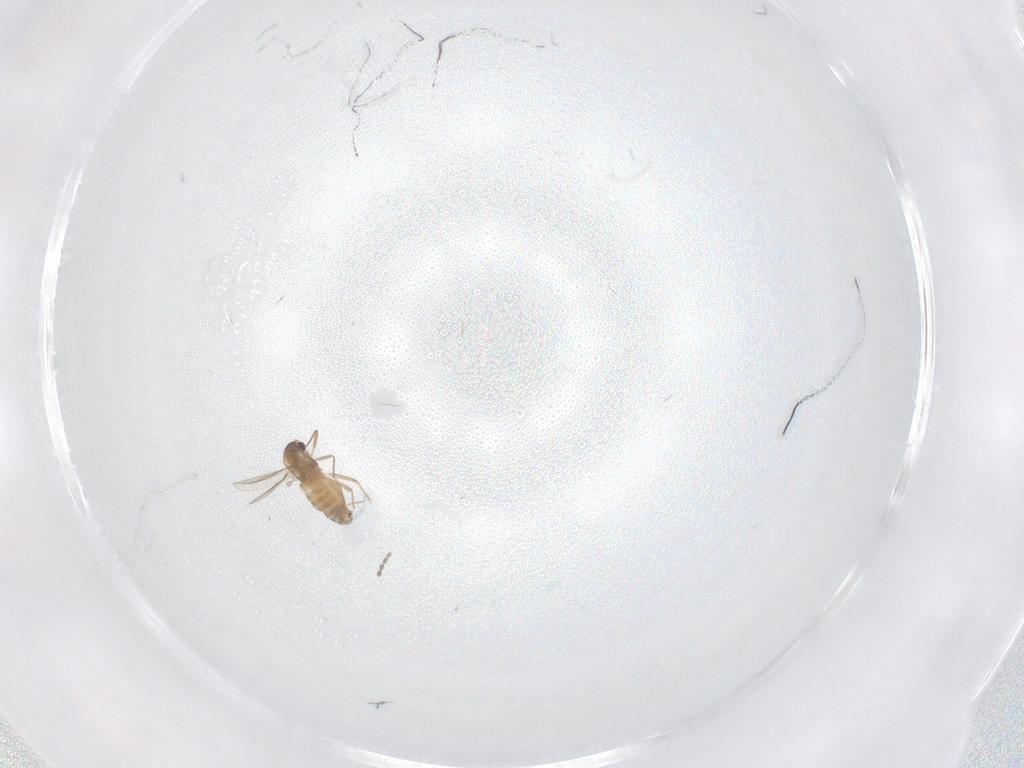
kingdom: Animalia
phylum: Arthropoda
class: Insecta
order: Diptera
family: Chironomidae
